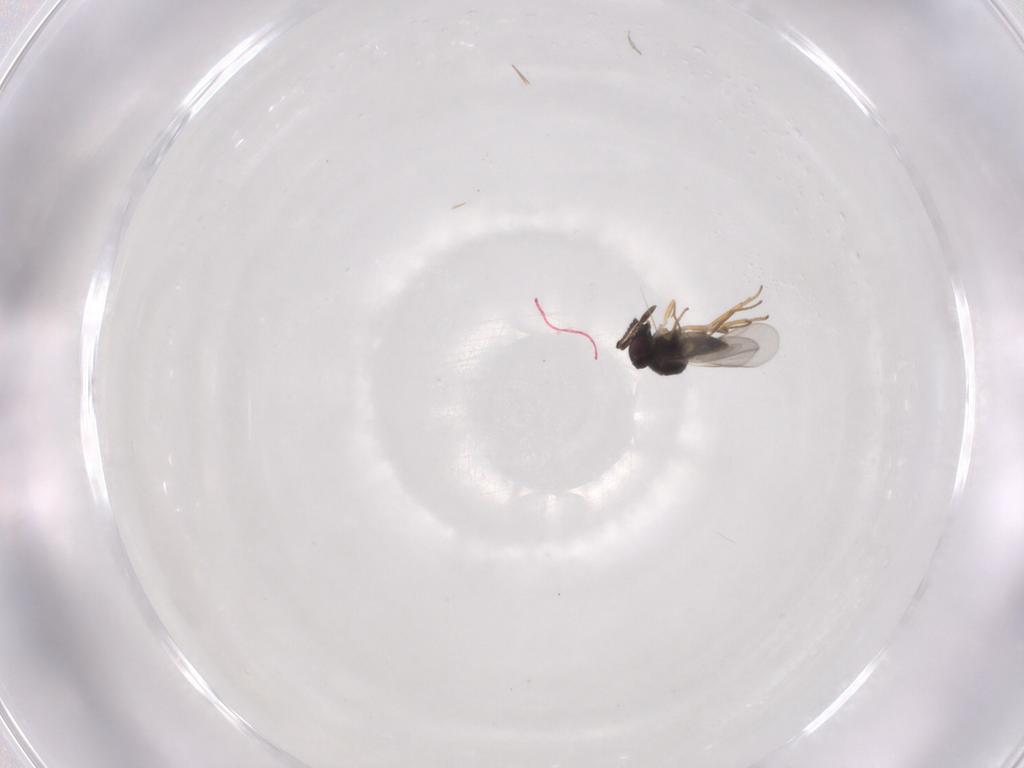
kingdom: Animalia
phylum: Arthropoda
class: Insecta
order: Hymenoptera
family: Encyrtidae
